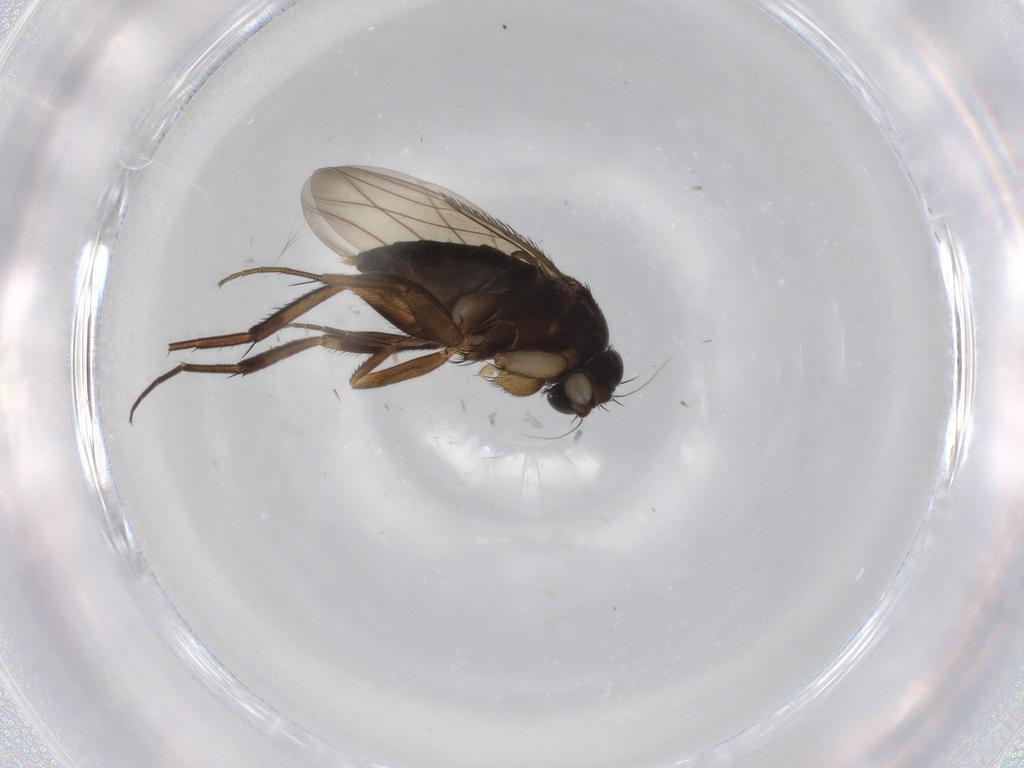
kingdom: Animalia
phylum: Arthropoda
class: Insecta
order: Diptera
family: Phoridae
